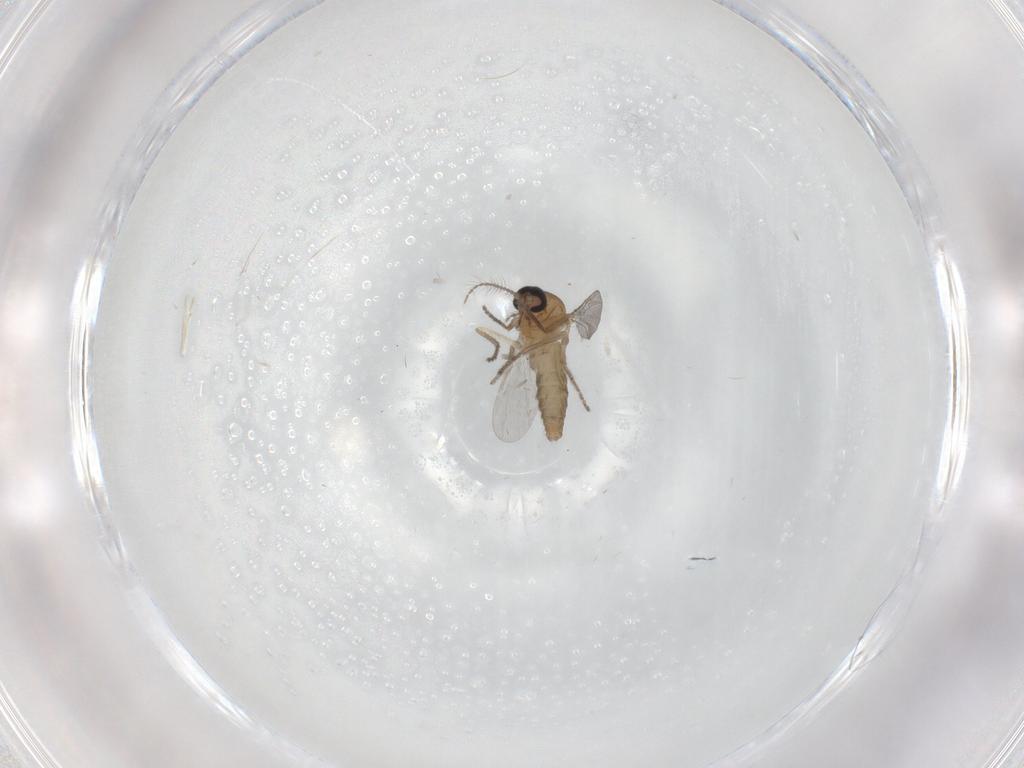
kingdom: Animalia
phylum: Arthropoda
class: Insecta
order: Diptera
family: Ceratopogonidae
